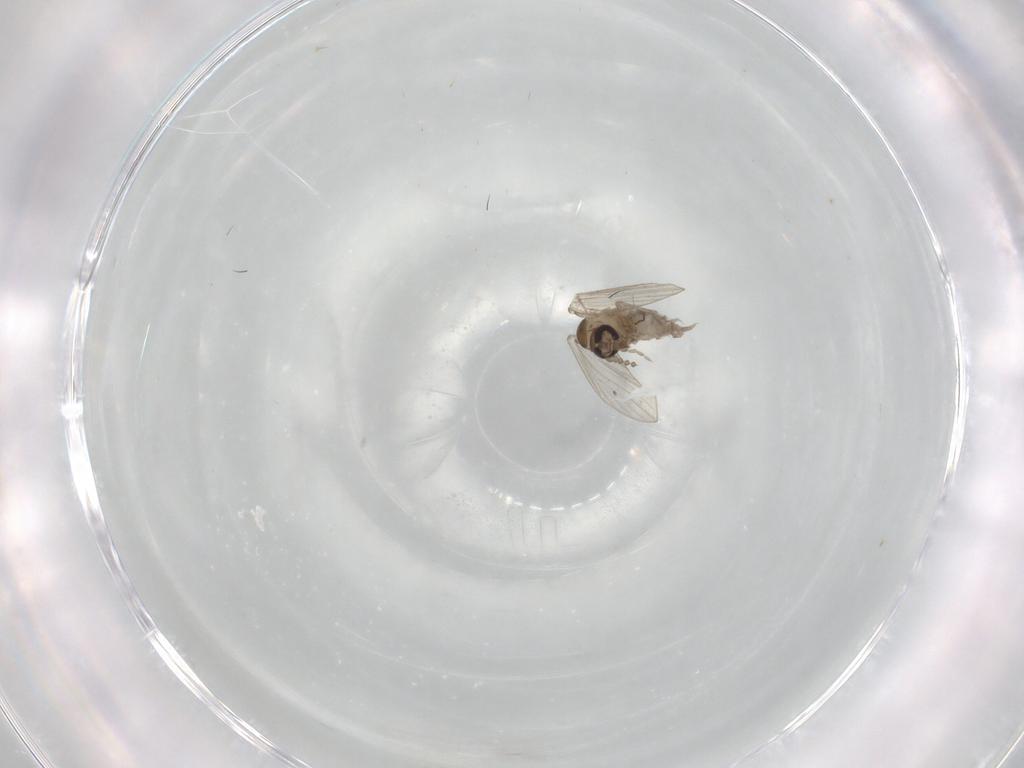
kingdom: Animalia
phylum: Arthropoda
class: Insecta
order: Diptera
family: Psychodidae
